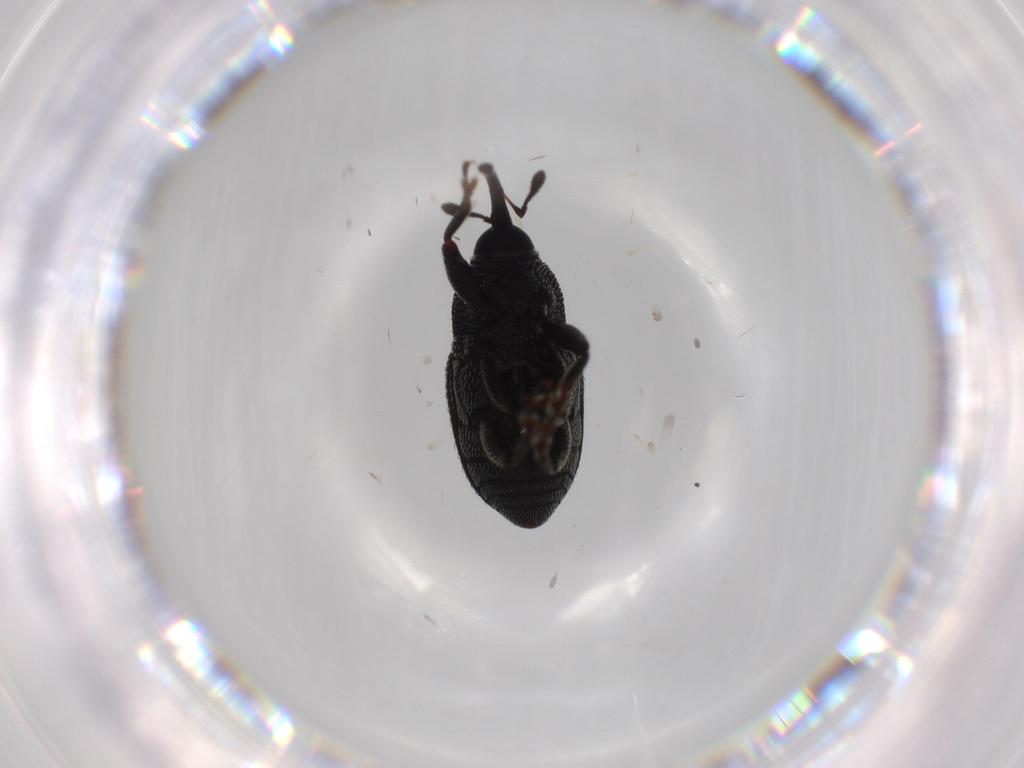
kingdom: Animalia
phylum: Arthropoda
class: Insecta
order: Coleoptera
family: Curculionidae
